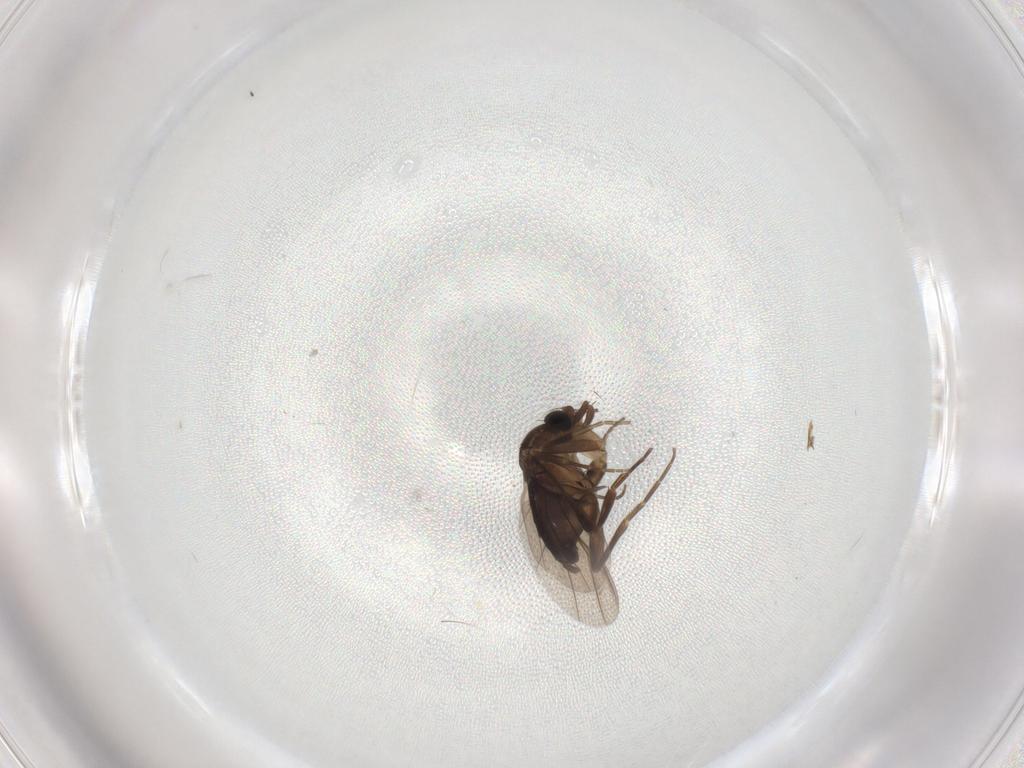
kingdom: Animalia
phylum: Arthropoda
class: Insecta
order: Diptera
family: Phoridae
